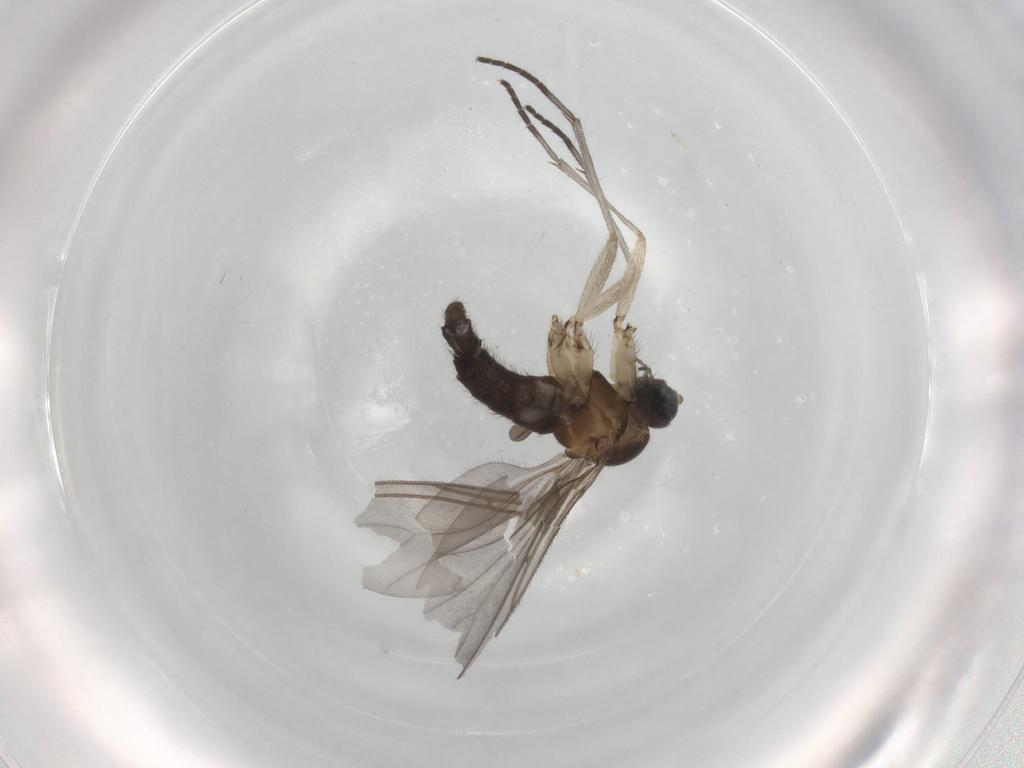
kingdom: Animalia
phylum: Arthropoda
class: Insecta
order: Diptera
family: Sciaridae
